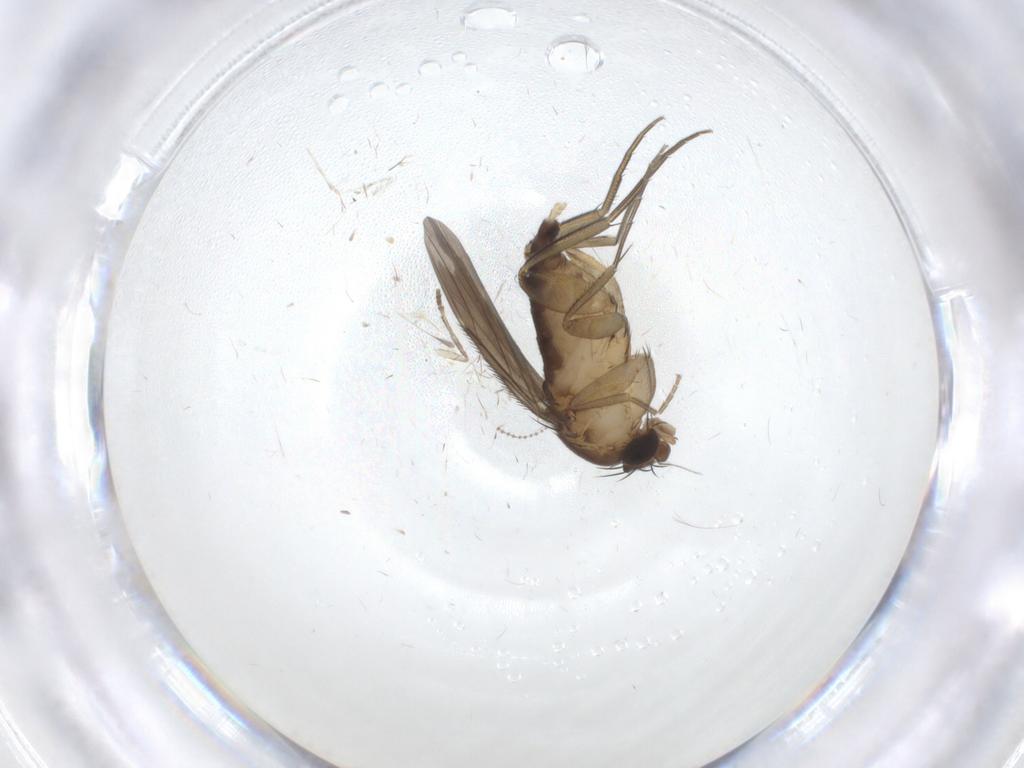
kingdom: Animalia
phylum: Arthropoda
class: Insecta
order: Diptera
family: Phoridae
